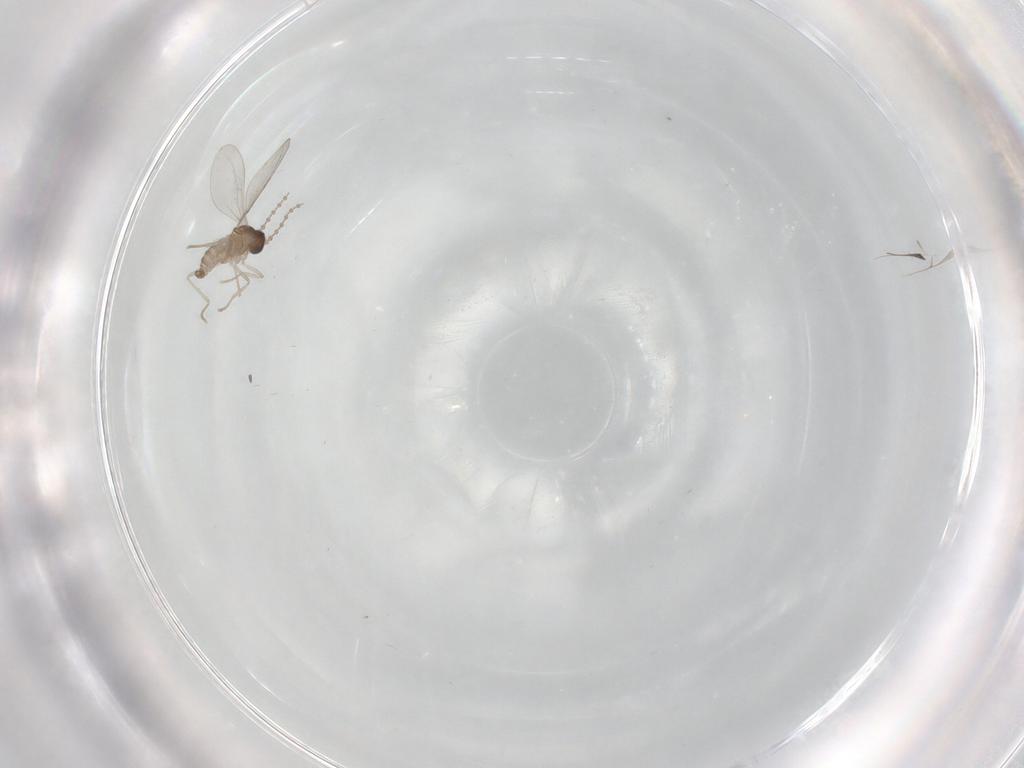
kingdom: Animalia
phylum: Arthropoda
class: Insecta
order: Diptera
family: Cecidomyiidae
